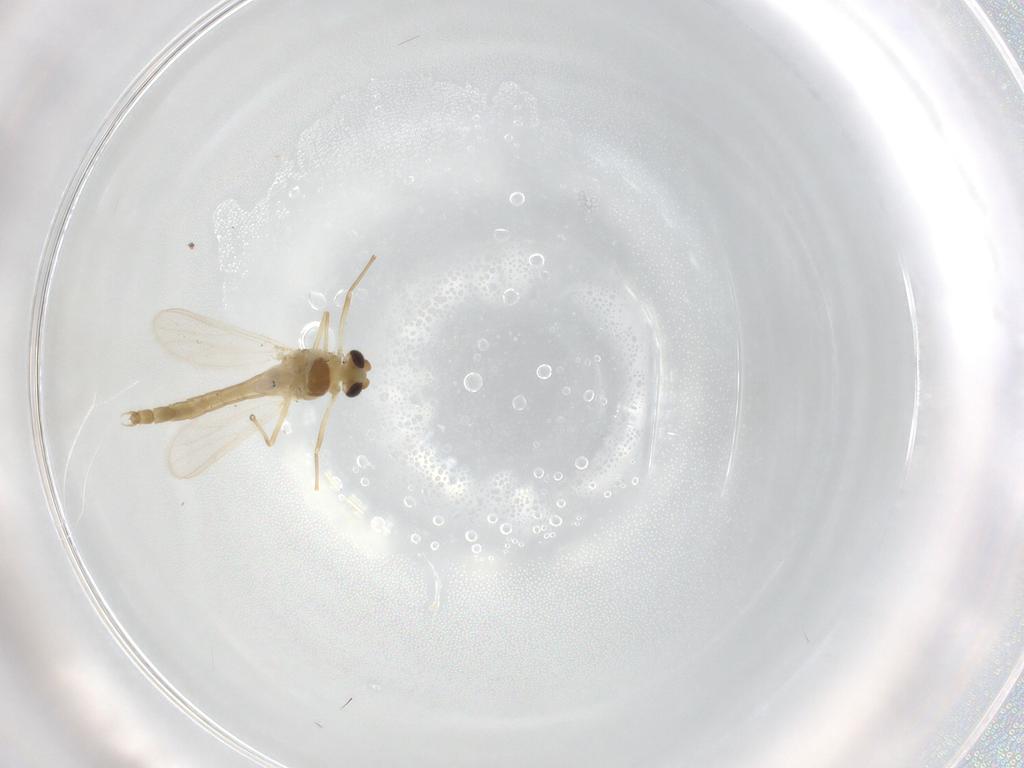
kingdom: Animalia
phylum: Arthropoda
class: Insecta
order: Diptera
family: Chironomidae
